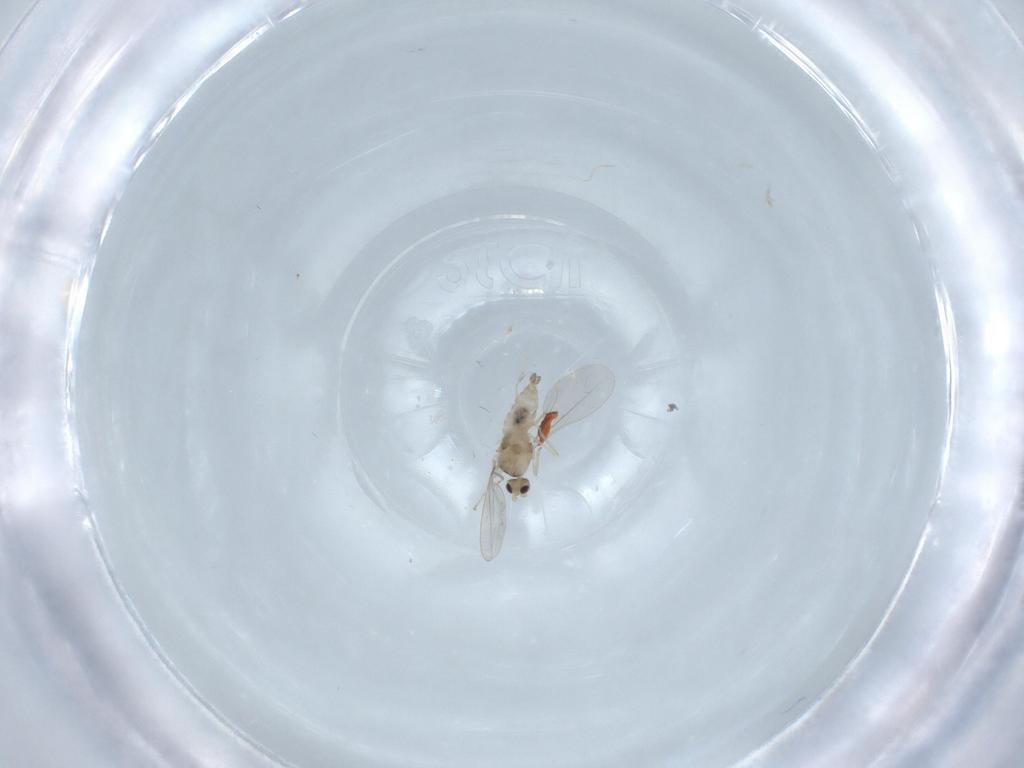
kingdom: Animalia
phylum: Arthropoda
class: Insecta
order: Diptera
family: Cecidomyiidae
